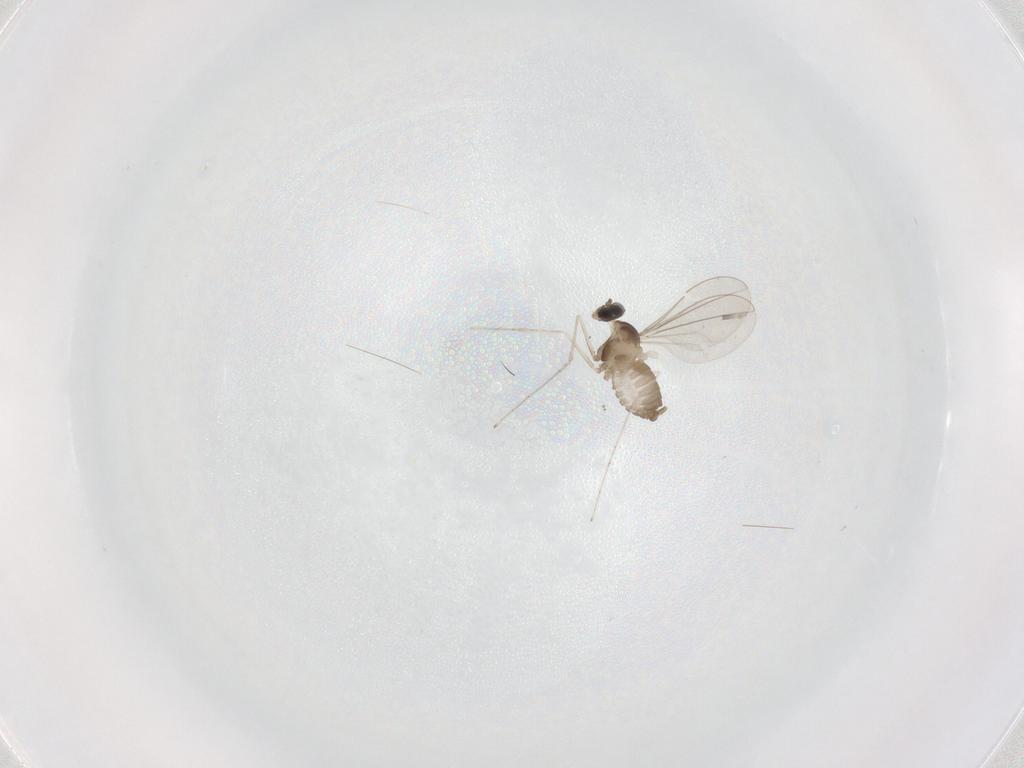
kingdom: Animalia
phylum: Arthropoda
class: Insecta
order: Diptera
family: Cecidomyiidae
